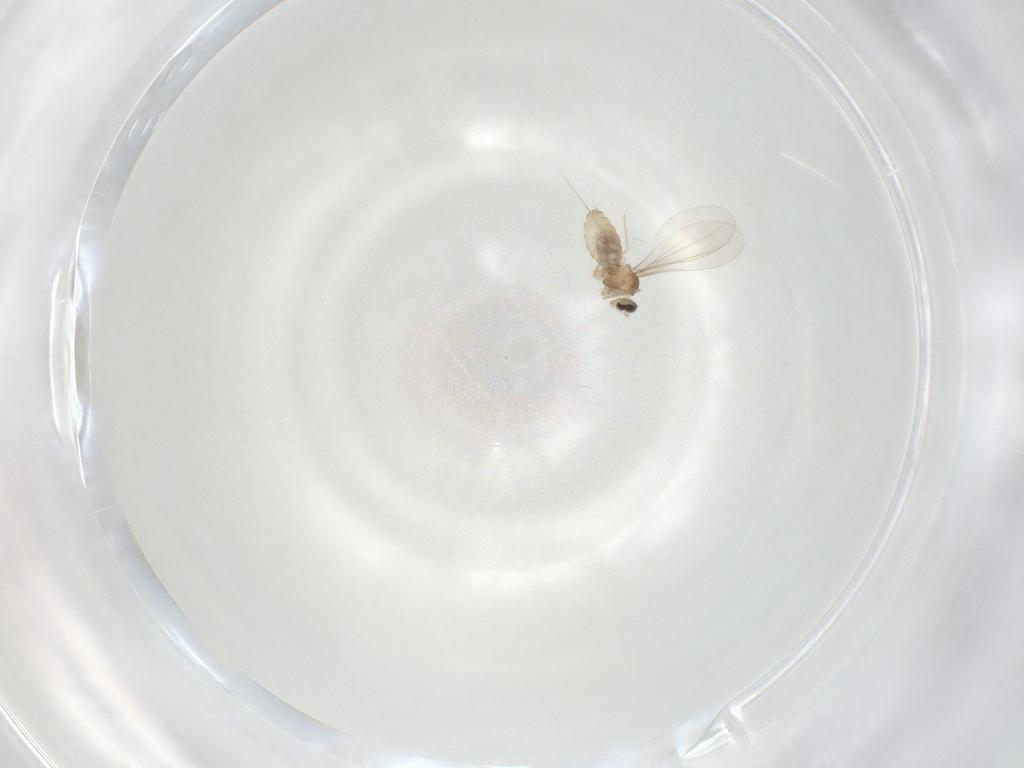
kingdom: Animalia
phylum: Arthropoda
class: Insecta
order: Diptera
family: Cecidomyiidae
